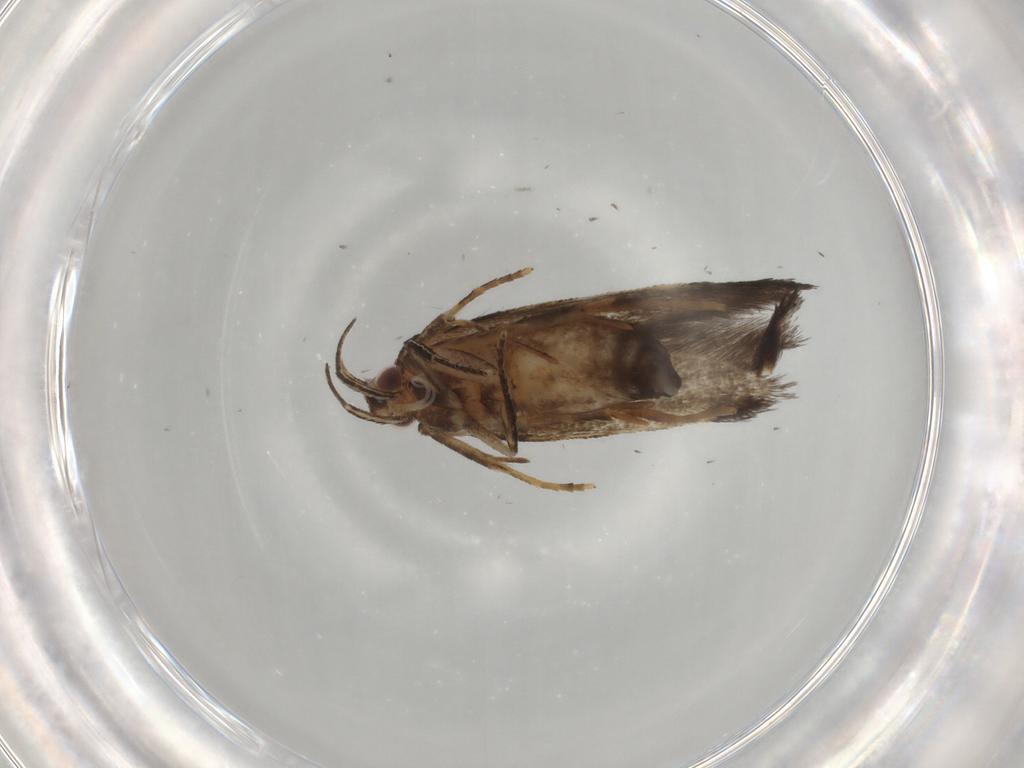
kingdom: Animalia
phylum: Arthropoda
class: Insecta
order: Lepidoptera
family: Cosmopterigidae
